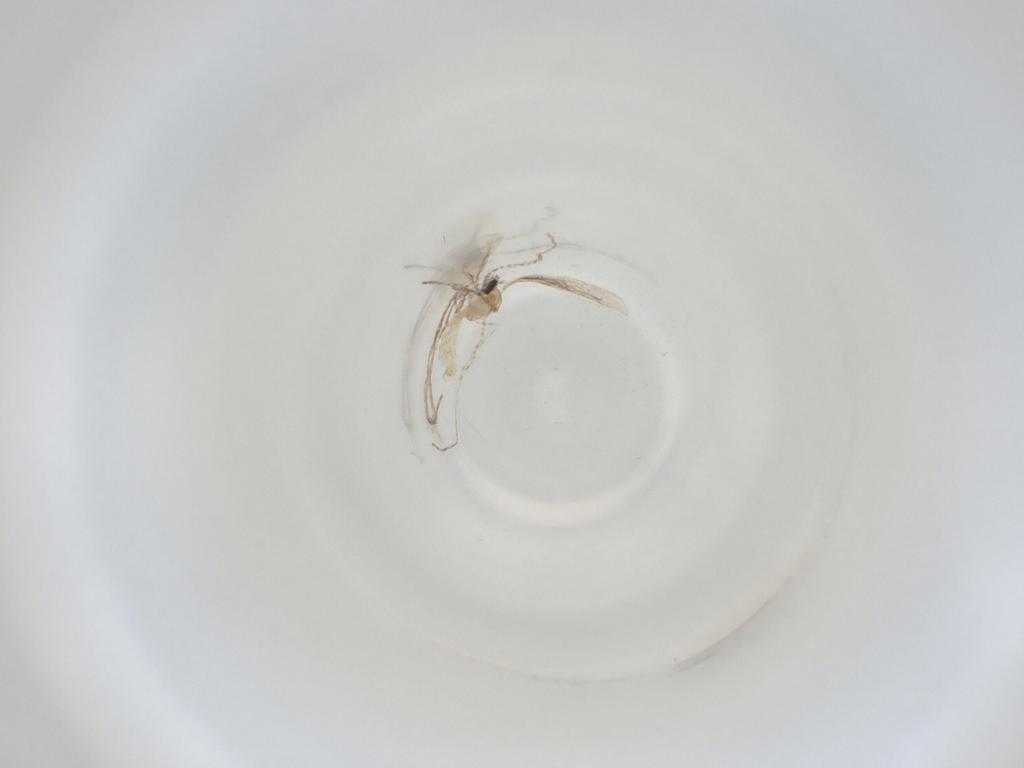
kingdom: Animalia
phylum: Arthropoda
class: Insecta
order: Diptera
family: Cecidomyiidae
